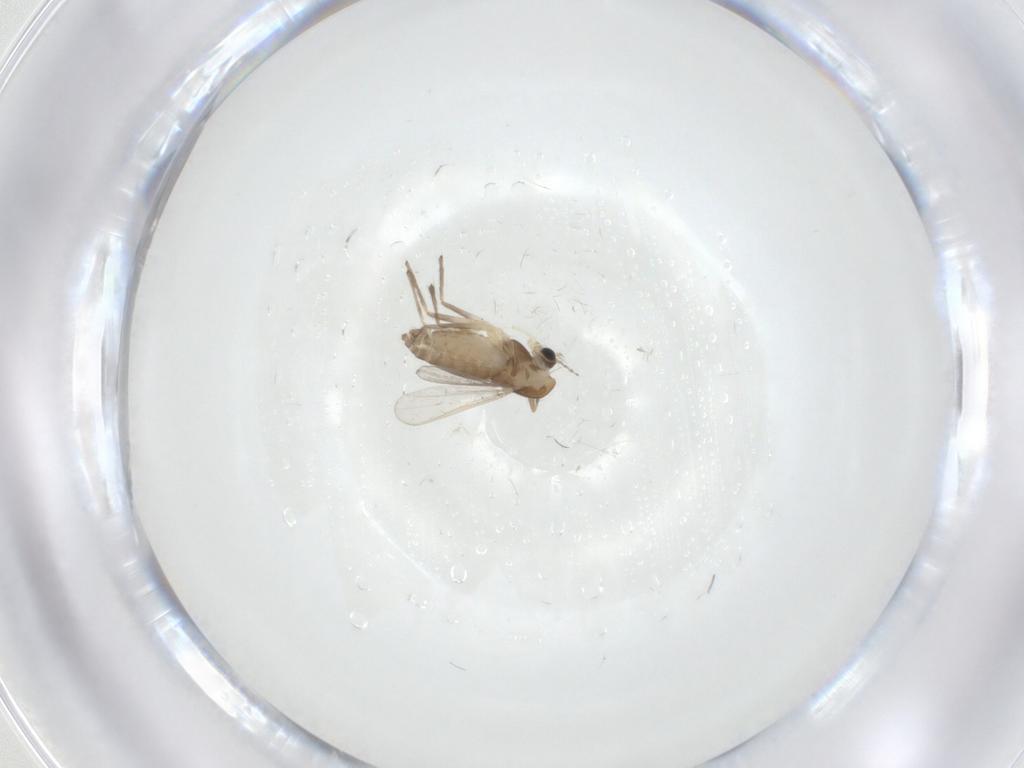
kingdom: Animalia
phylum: Arthropoda
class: Insecta
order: Diptera
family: Chironomidae
